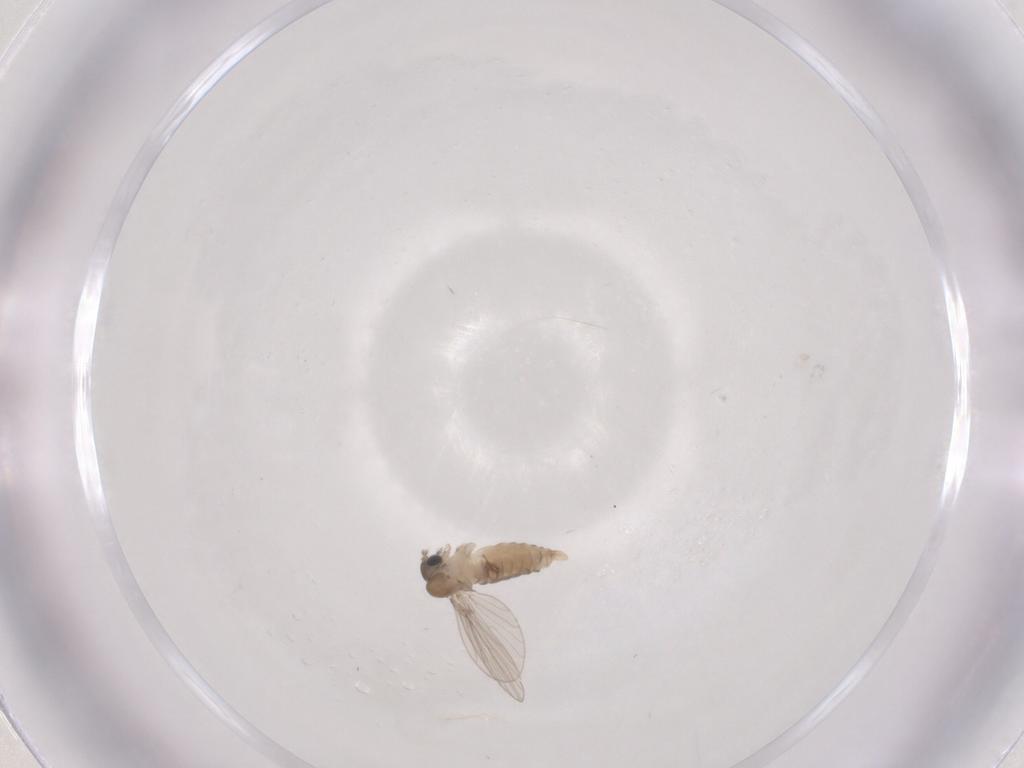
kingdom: Animalia
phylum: Arthropoda
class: Insecta
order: Diptera
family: Psychodidae
